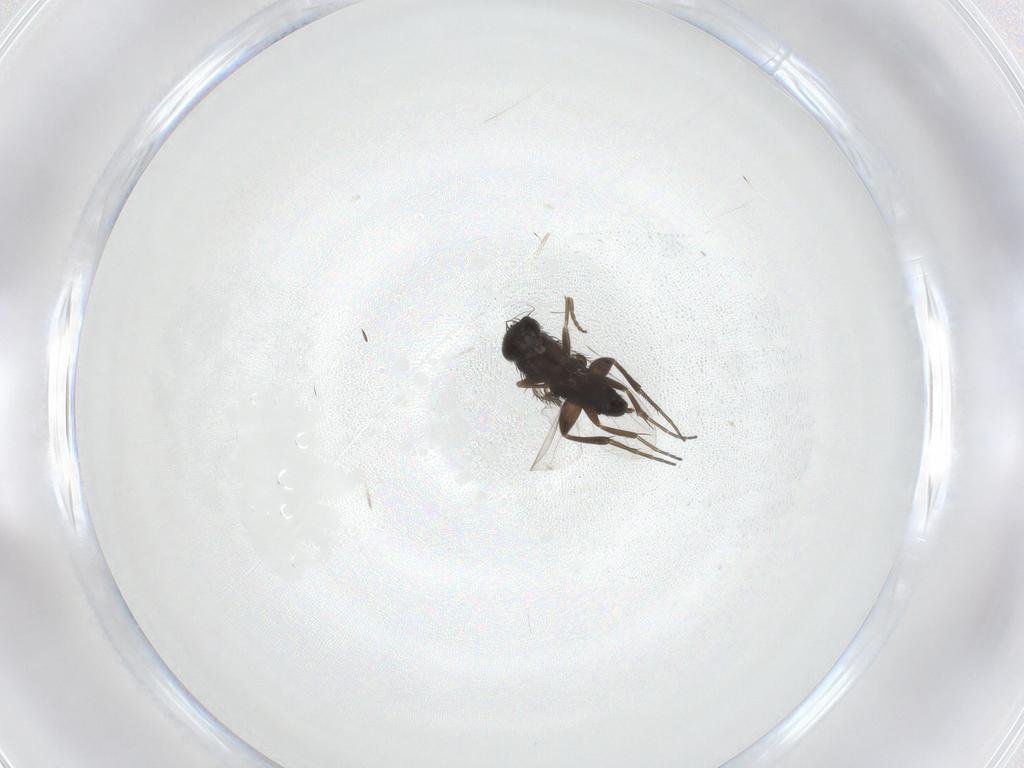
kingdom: Animalia
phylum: Arthropoda
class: Insecta
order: Diptera
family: Phoridae
